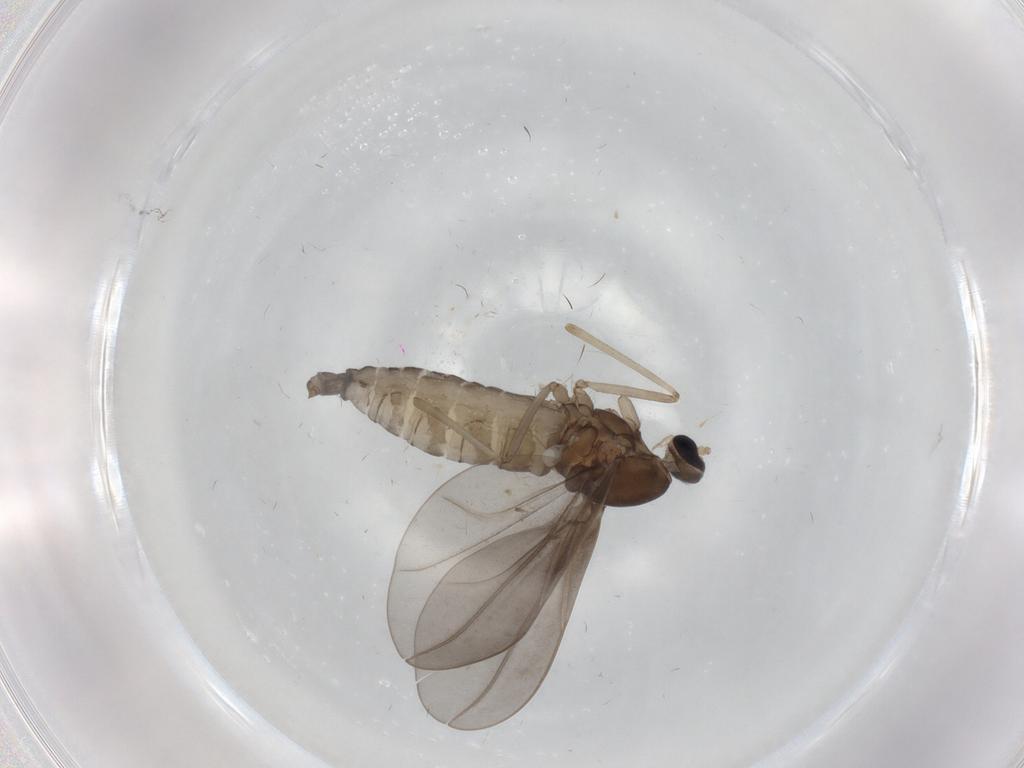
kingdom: Animalia
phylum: Arthropoda
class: Insecta
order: Diptera
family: Cecidomyiidae
